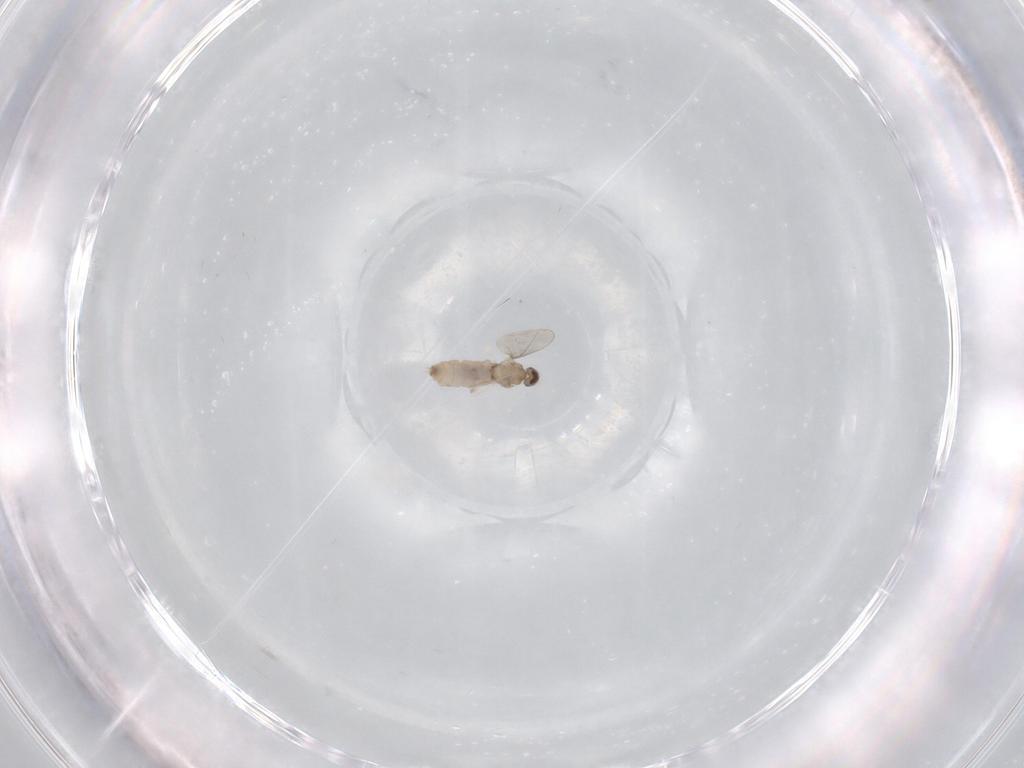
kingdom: Animalia
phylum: Arthropoda
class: Insecta
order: Diptera
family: Cecidomyiidae
